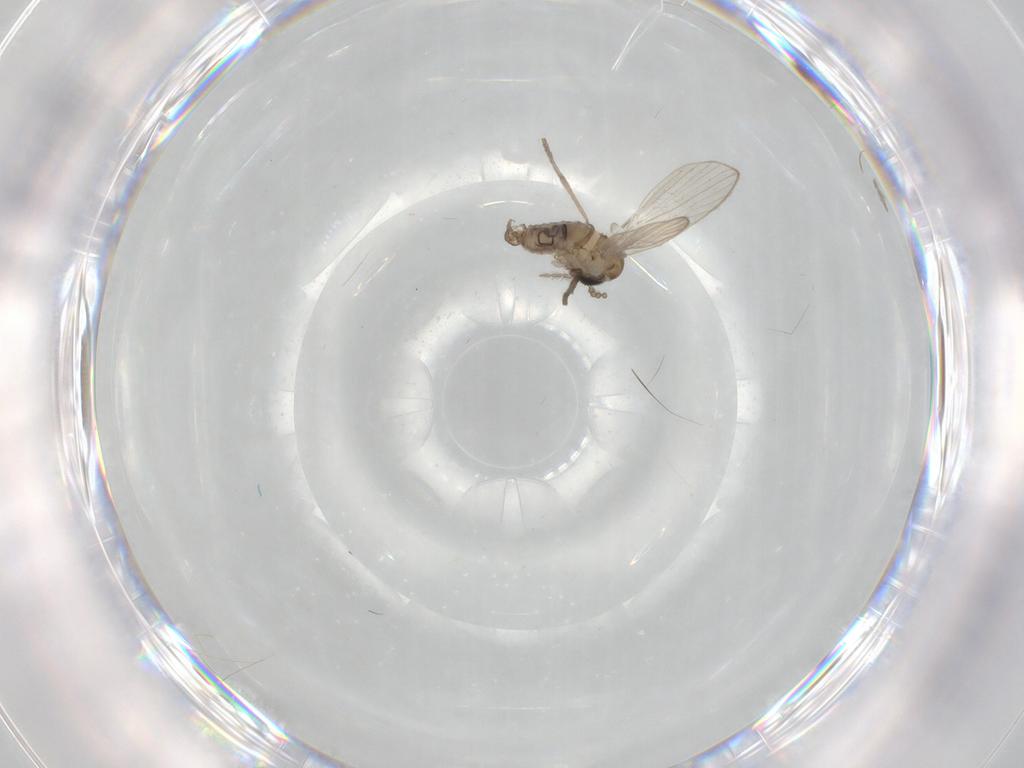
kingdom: Animalia
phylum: Arthropoda
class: Insecta
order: Diptera
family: Psychodidae
